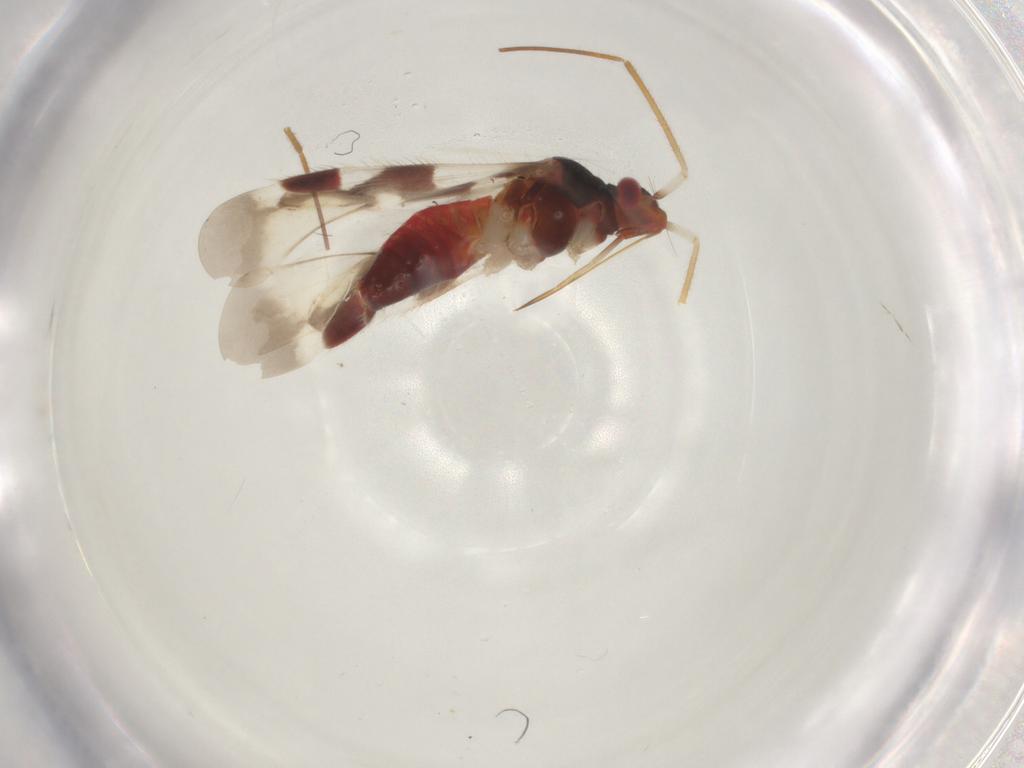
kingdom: Animalia
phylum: Arthropoda
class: Insecta
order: Hemiptera
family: Miridae
